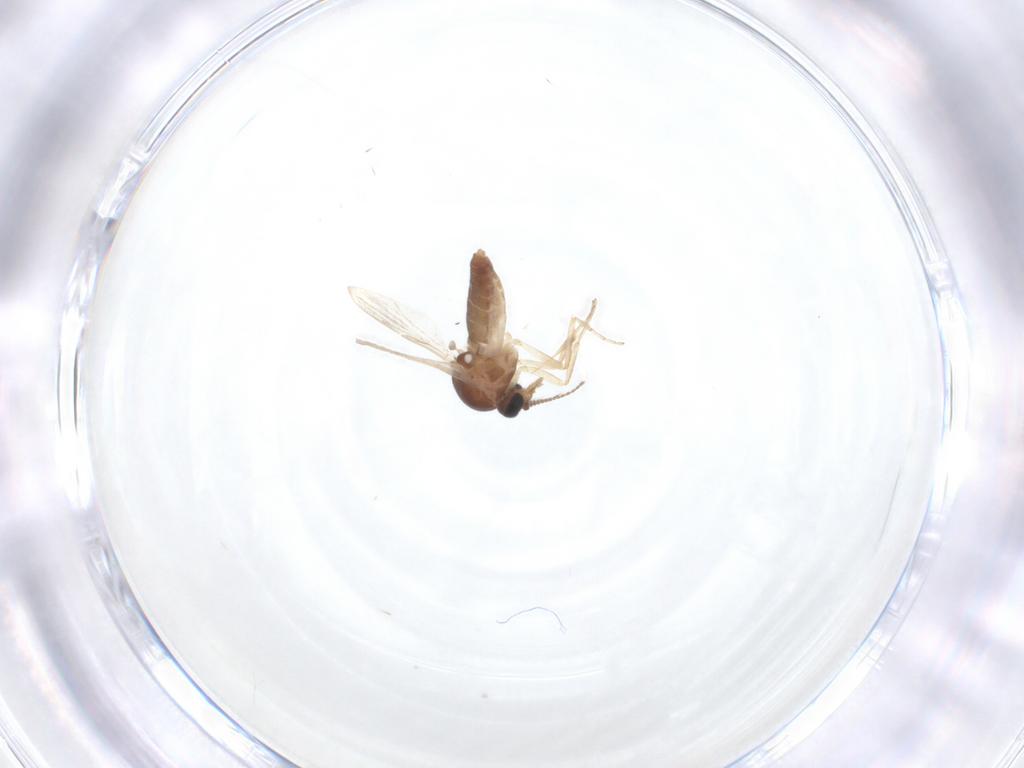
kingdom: Animalia
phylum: Arthropoda
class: Insecta
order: Diptera
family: Ceratopogonidae
